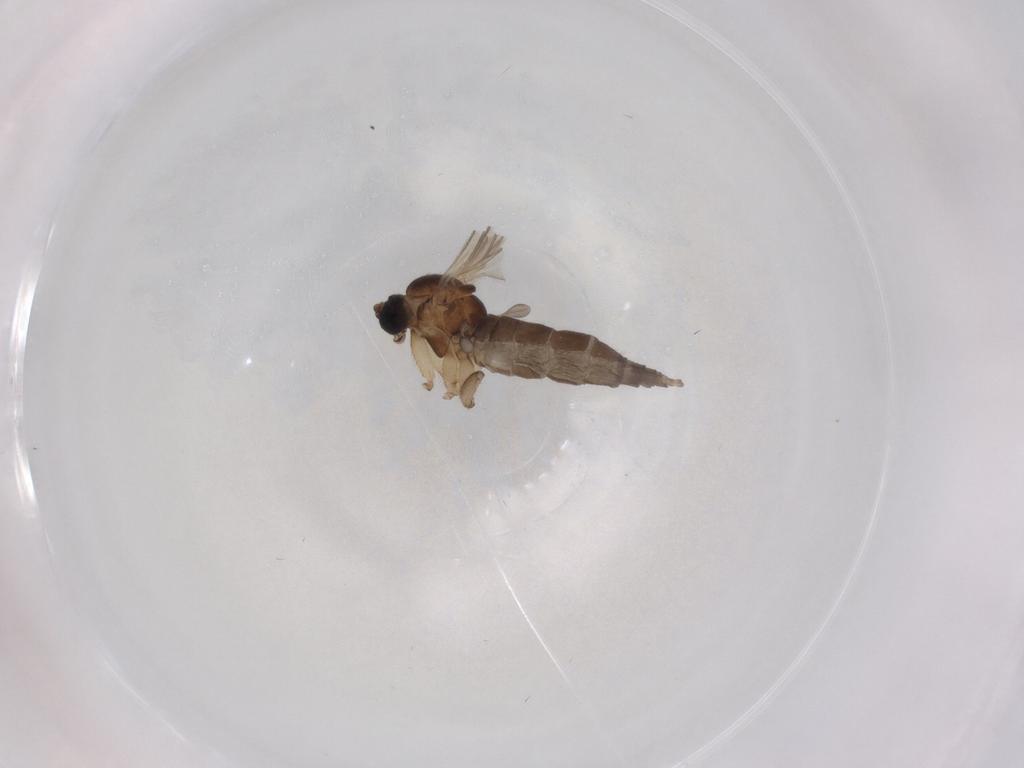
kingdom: Animalia
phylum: Arthropoda
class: Insecta
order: Diptera
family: Sciaridae
